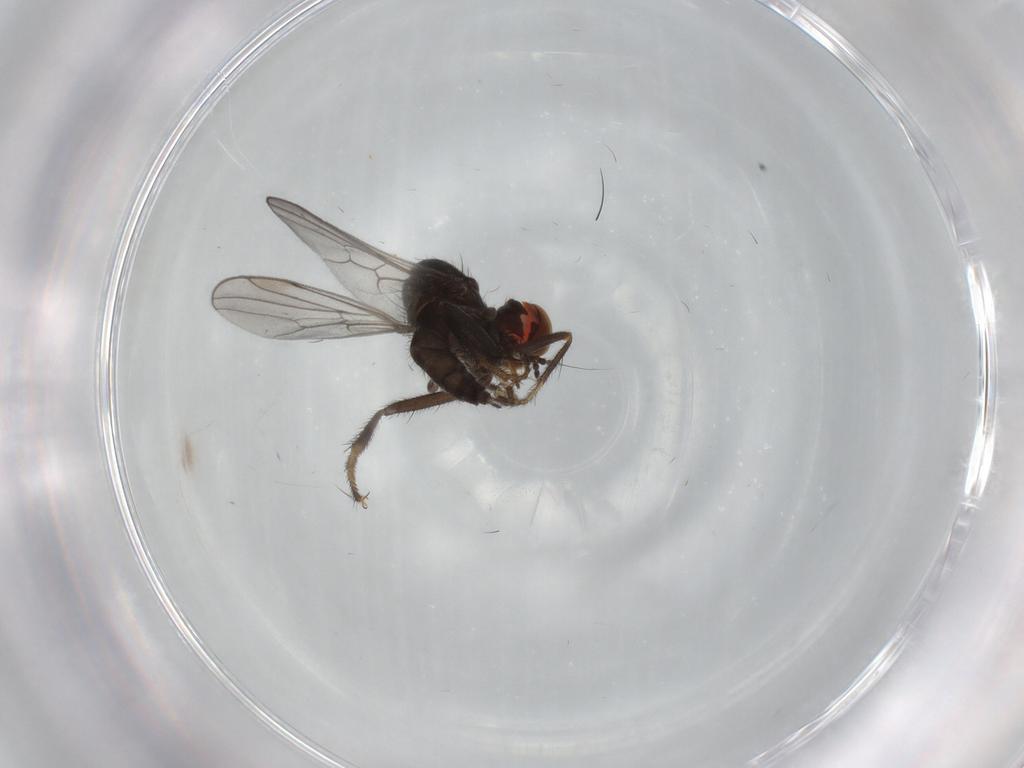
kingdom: Animalia
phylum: Arthropoda
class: Insecta
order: Diptera
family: Hybotidae
